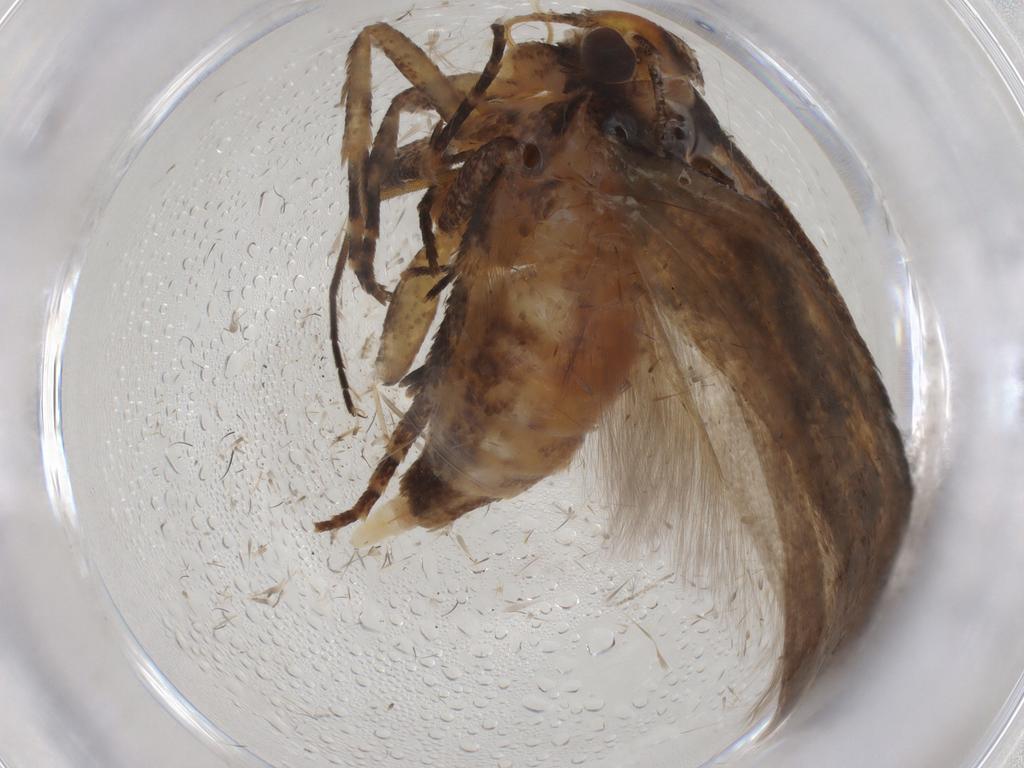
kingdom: Animalia
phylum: Arthropoda
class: Insecta
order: Lepidoptera
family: Gelechiidae
